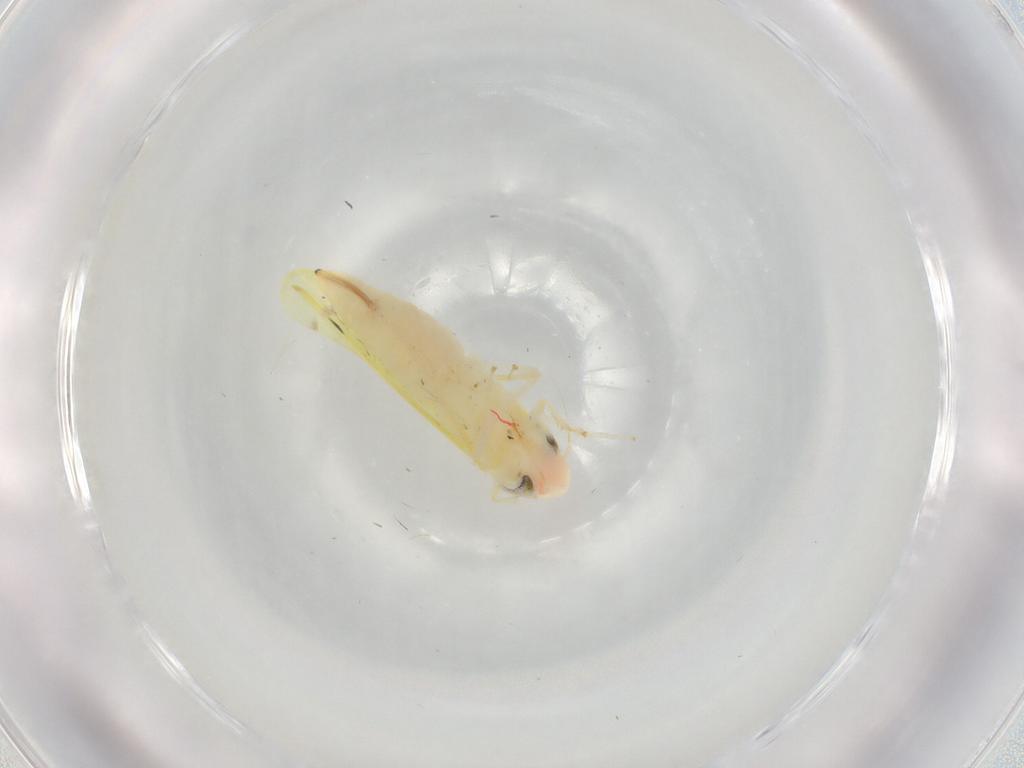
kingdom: Animalia
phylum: Arthropoda
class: Insecta
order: Hemiptera
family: Cicadellidae
